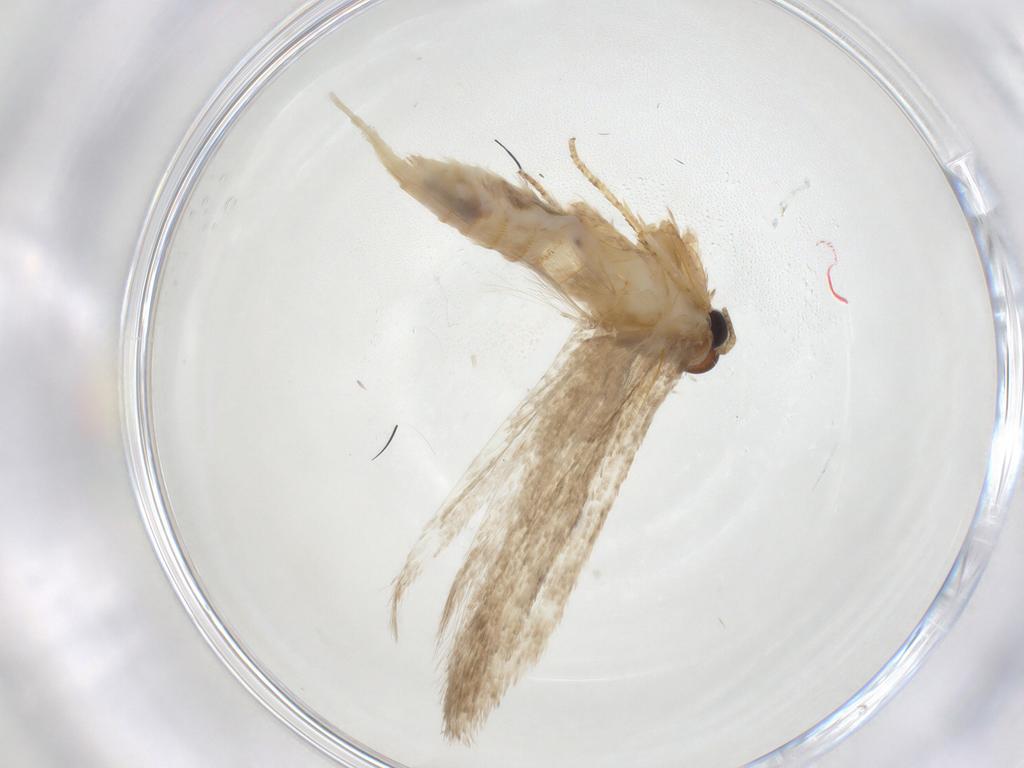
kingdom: Animalia
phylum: Arthropoda
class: Insecta
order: Lepidoptera
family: Blastobasidae
